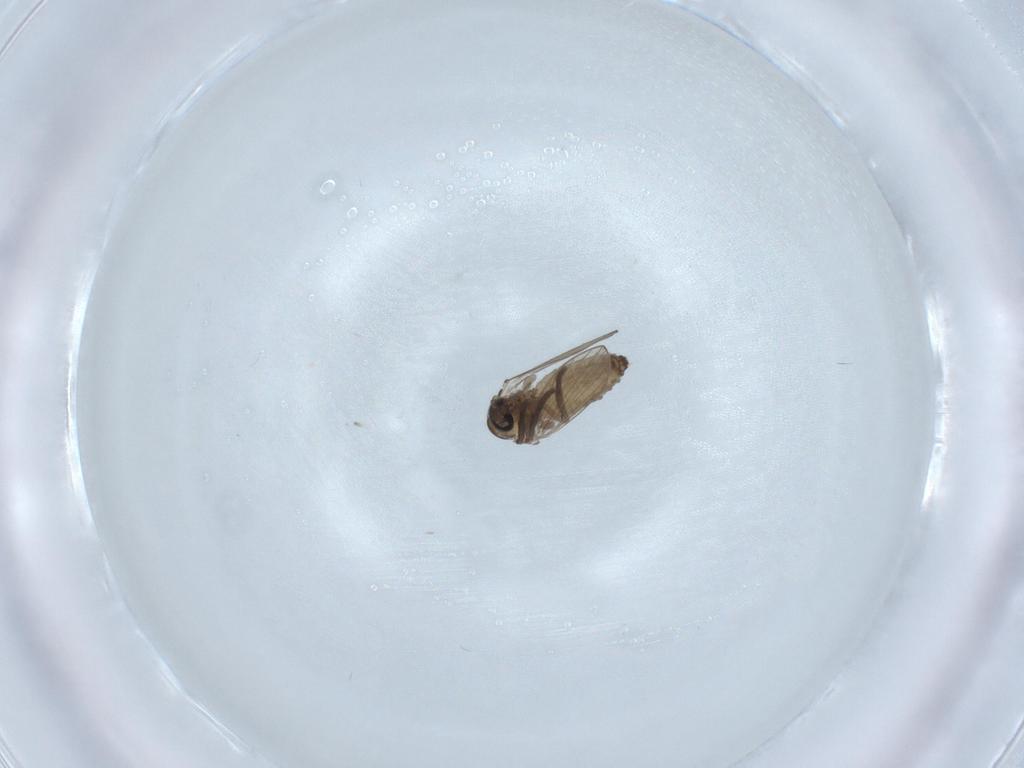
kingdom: Animalia
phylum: Arthropoda
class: Insecta
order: Diptera
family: Psychodidae
